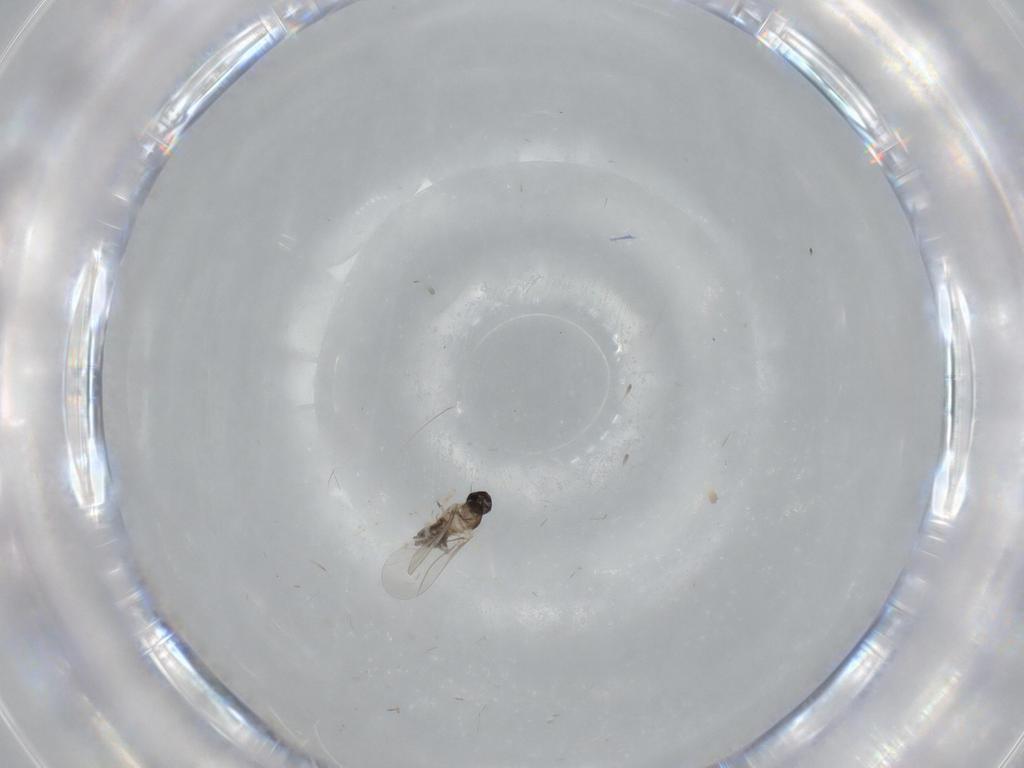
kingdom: Animalia
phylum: Arthropoda
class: Insecta
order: Diptera
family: Cecidomyiidae
